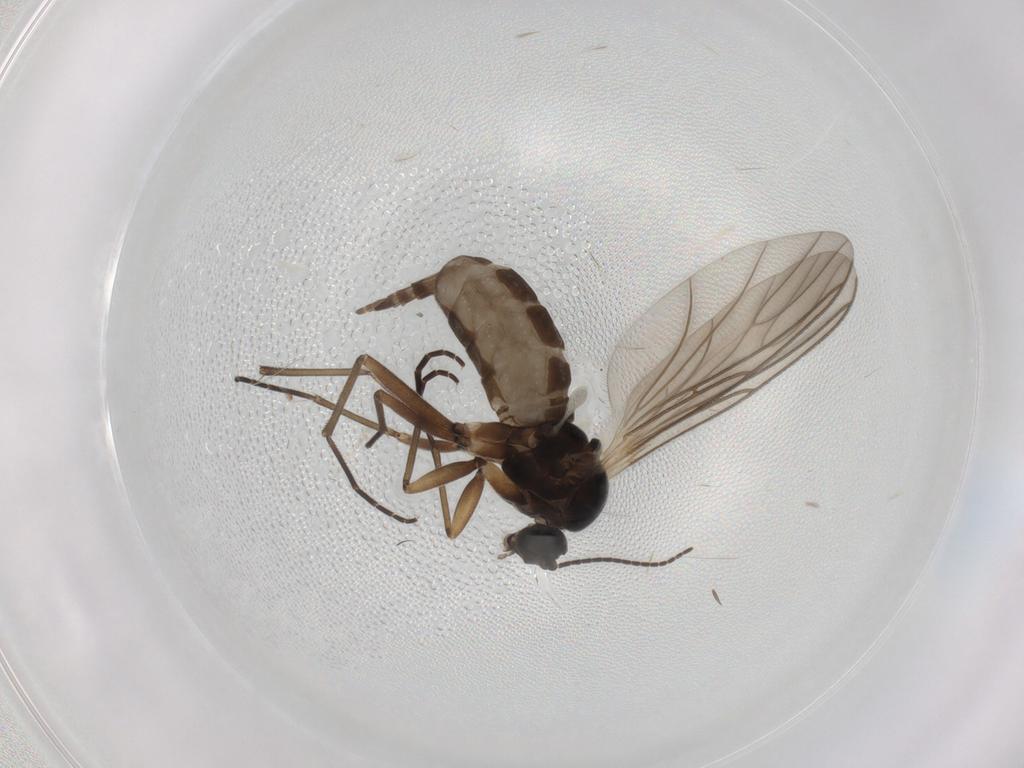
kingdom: Animalia
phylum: Arthropoda
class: Insecta
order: Diptera
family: Sciaridae
